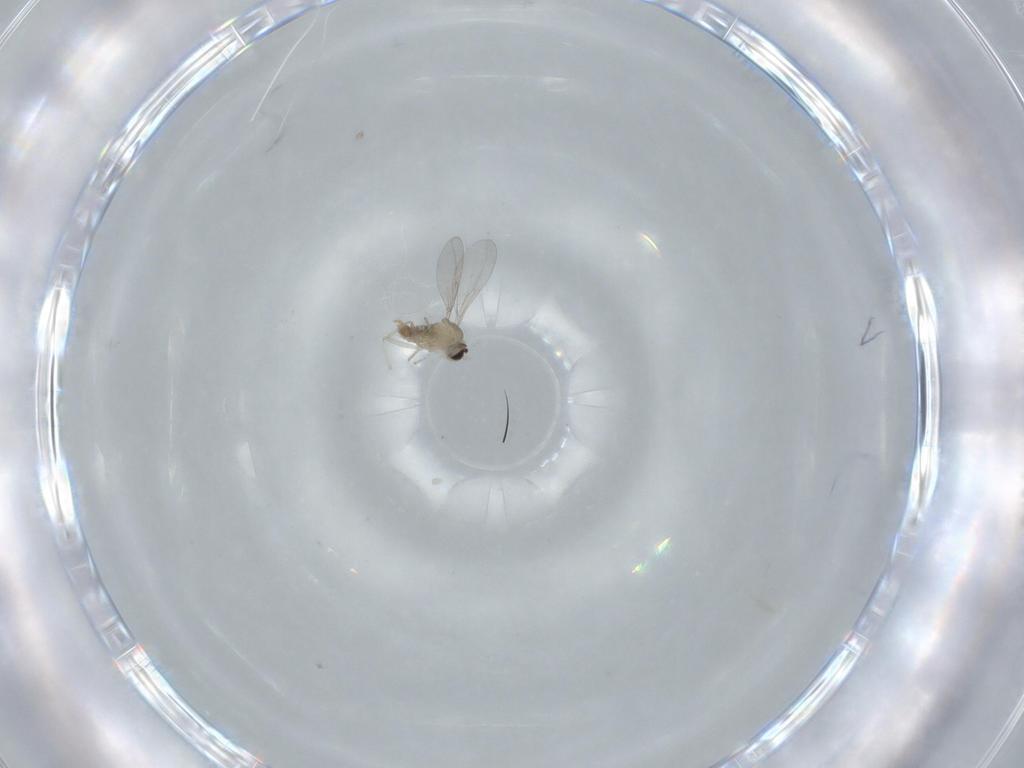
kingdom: Animalia
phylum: Arthropoda
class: Insecta
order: Diptera
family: Cecidomyiidae
